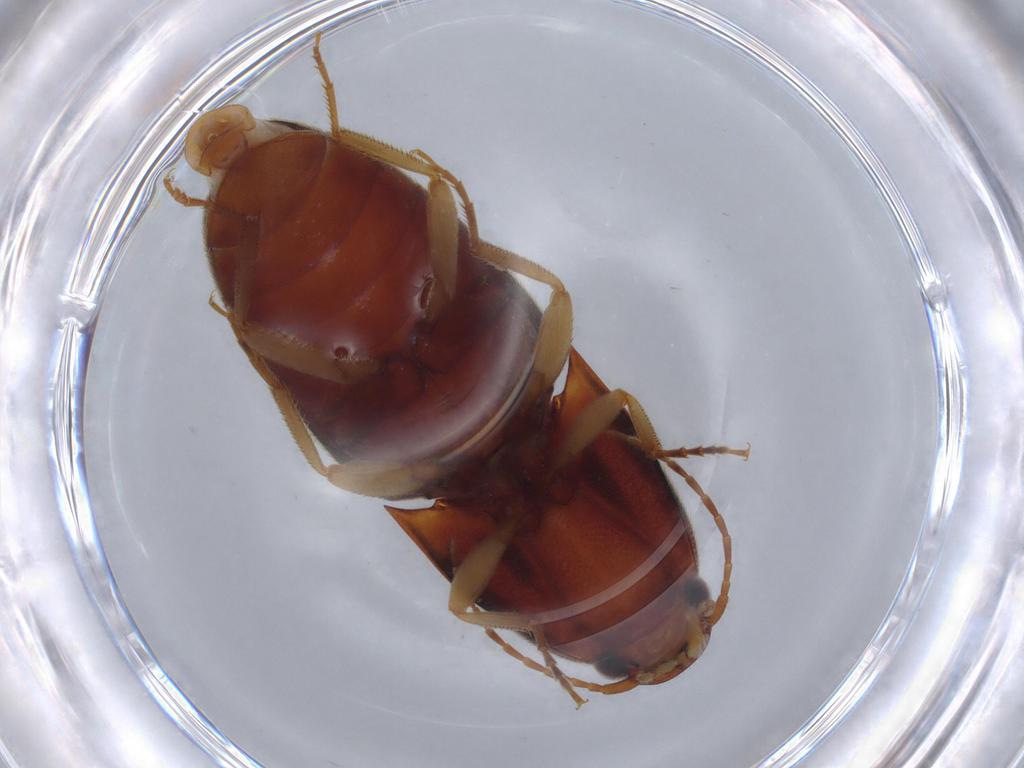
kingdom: Animalia
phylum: Arthropoda
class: Insecta
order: Coleoptera
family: Elateridae
